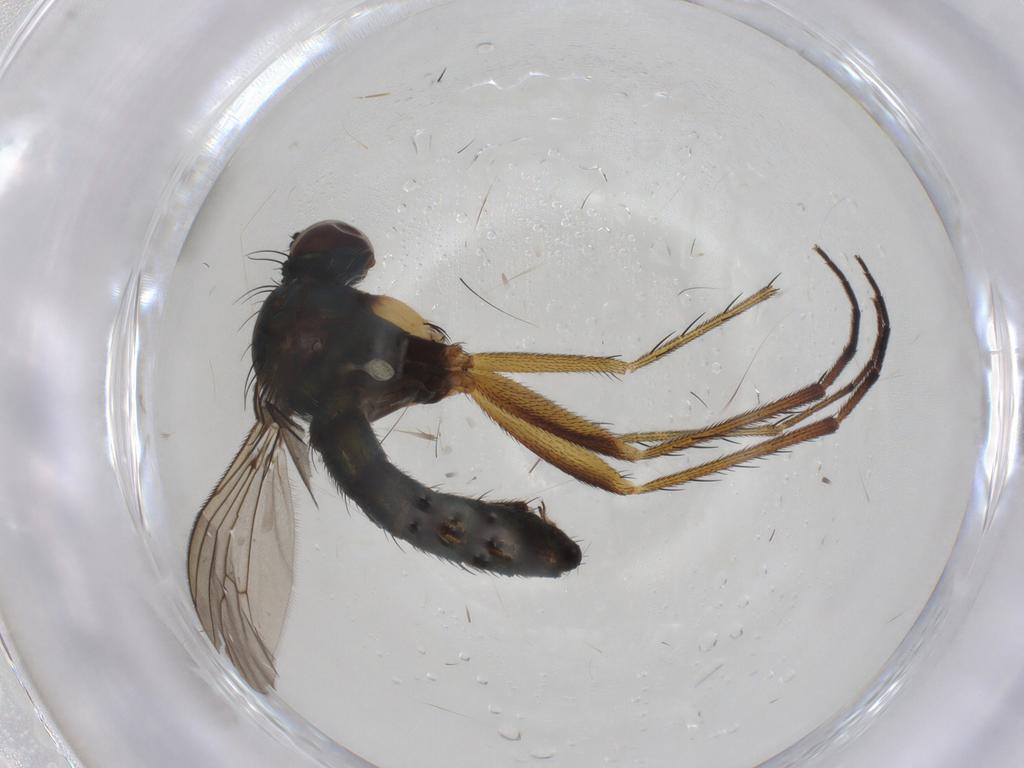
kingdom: Animalia
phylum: Arthropoda
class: Insecta
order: Diptera
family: Dolichopodidae
